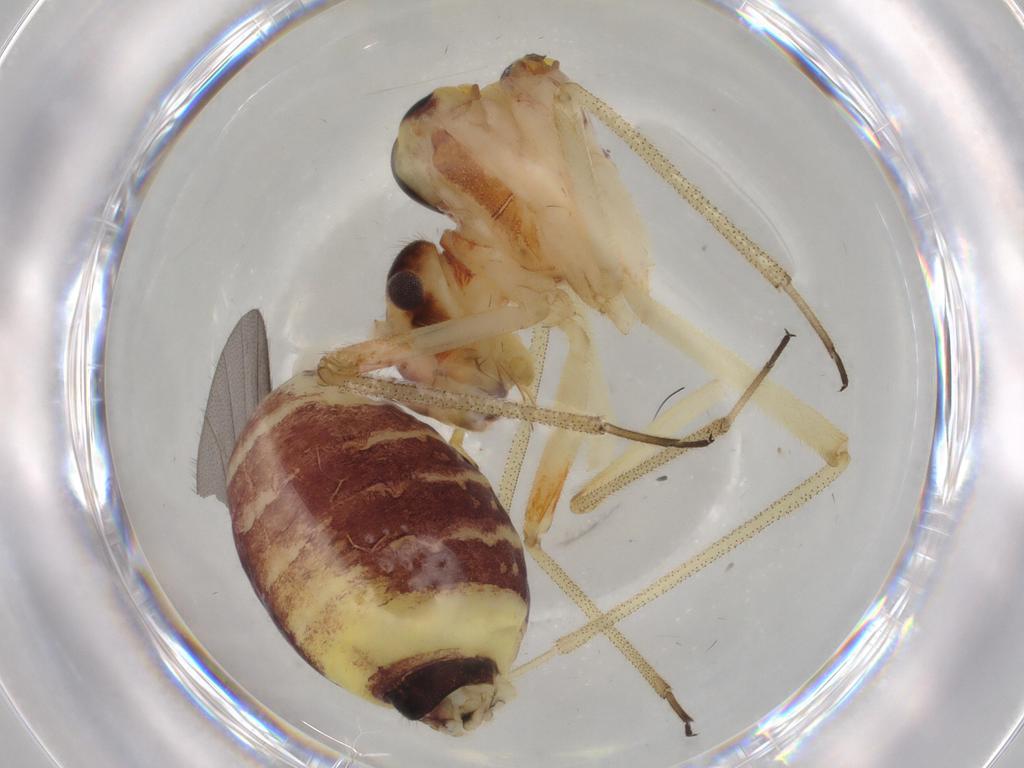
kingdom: Animalia
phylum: Arthropoda
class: Insecta
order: Psocodea
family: Psocidae
